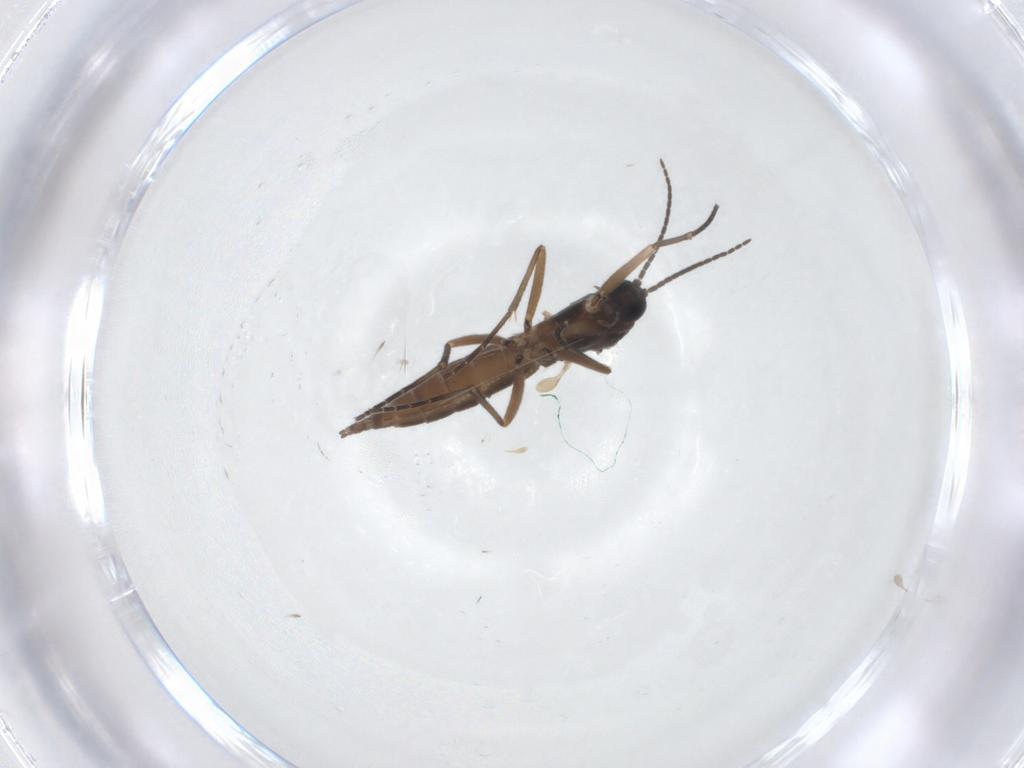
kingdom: Animalia
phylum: Arthropoda
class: Insecta
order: Diptera
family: Sciaridae
